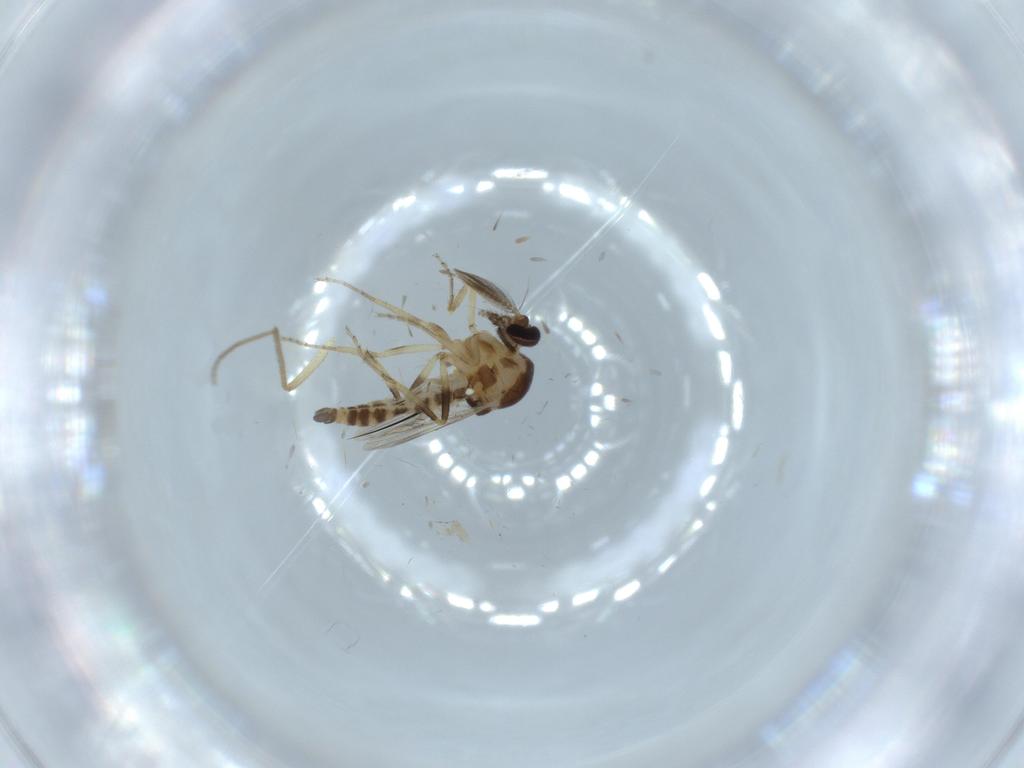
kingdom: Animalia
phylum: Arthropoda
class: Insecta
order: Diptera
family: Ceratopogonidae
